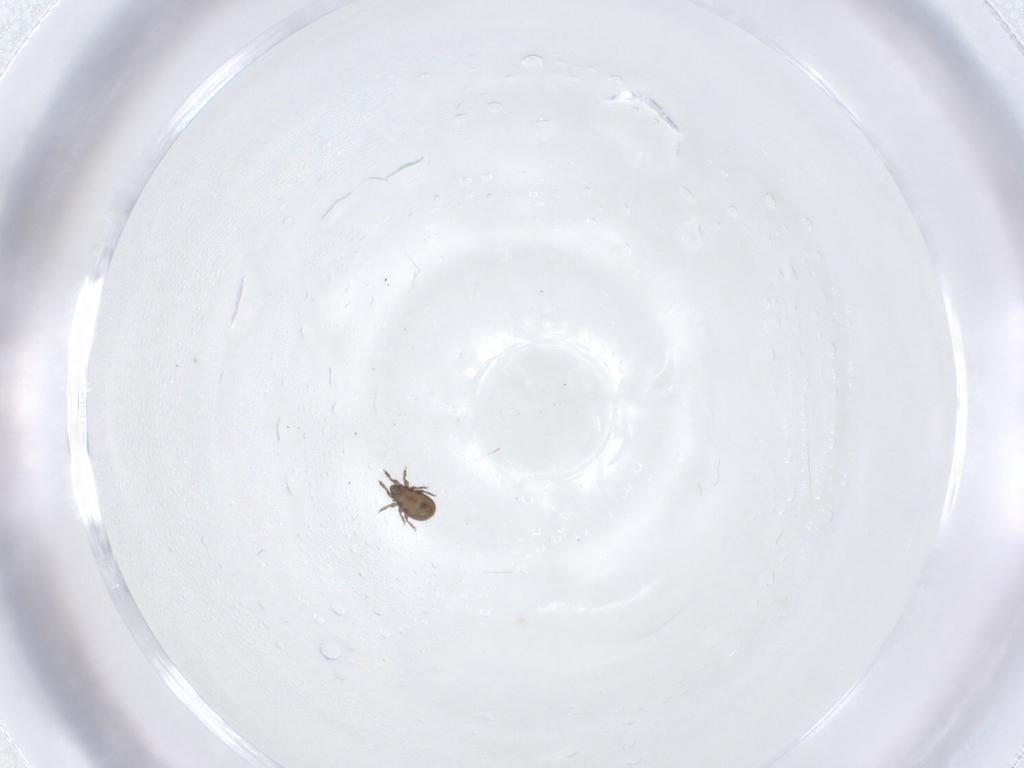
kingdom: Animalia
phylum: Arthropoda
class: Arachnida
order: Sarcoptiformes
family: Cymbaeremaeidae
